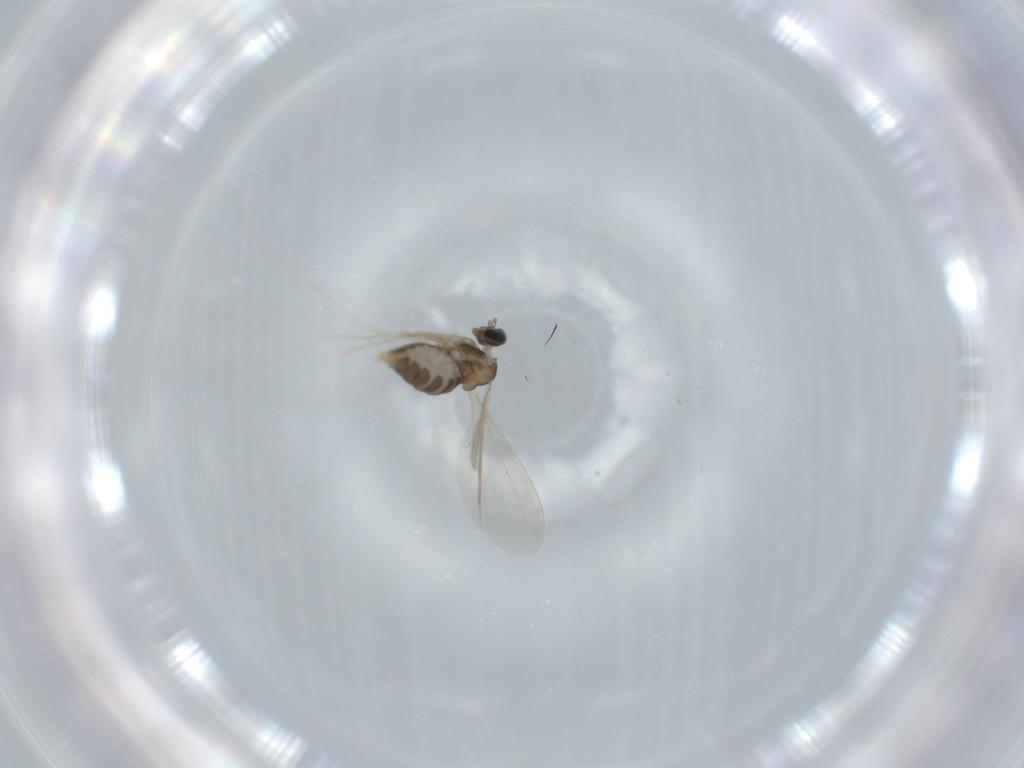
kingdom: Animalia
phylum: Arthropoda
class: Insecta
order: Diptera
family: Cecidomyiidae
